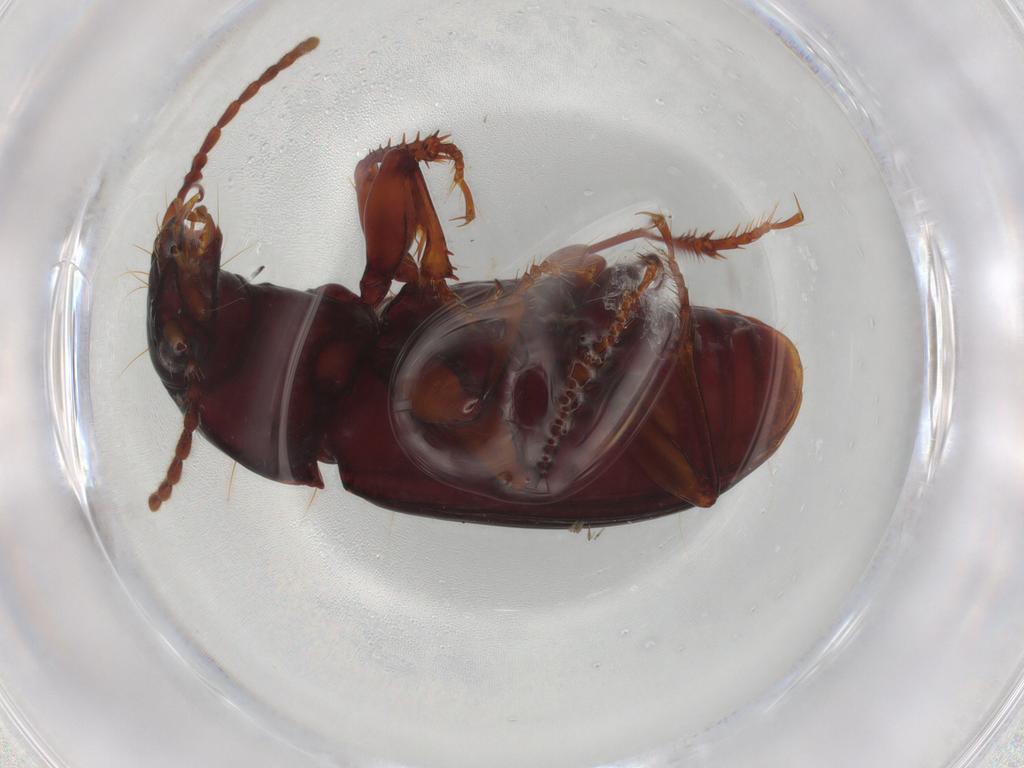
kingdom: Animalia
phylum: Arthropoda
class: Insecta
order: Coleoptera
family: Carabidae
